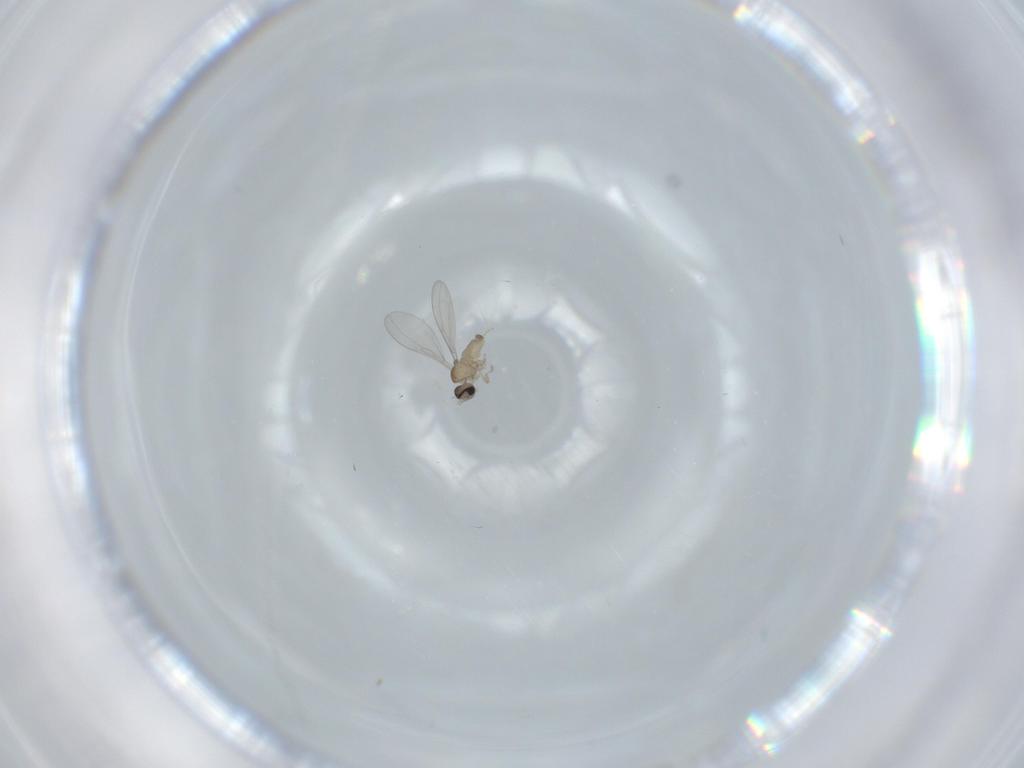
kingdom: Animalia
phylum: Arthropoda
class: Insecta
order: Diptera
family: Cecidomyiidae
